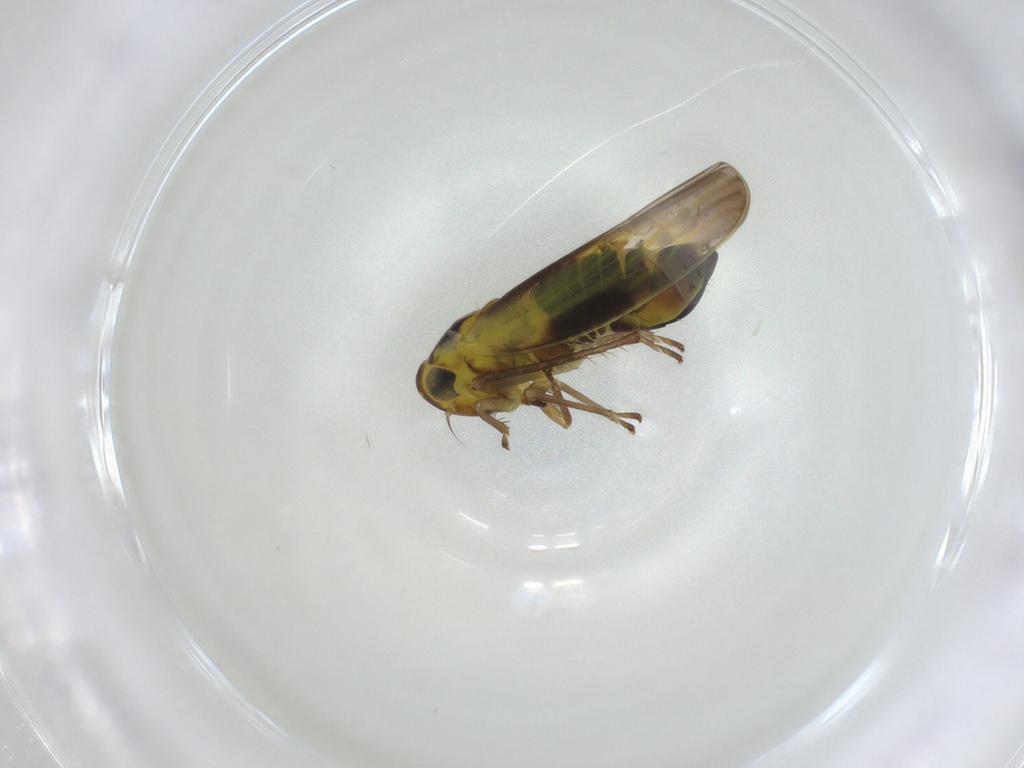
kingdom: Animalia
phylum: Arthropoda
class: Insecta
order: Hemiptera
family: Cicadellidae
